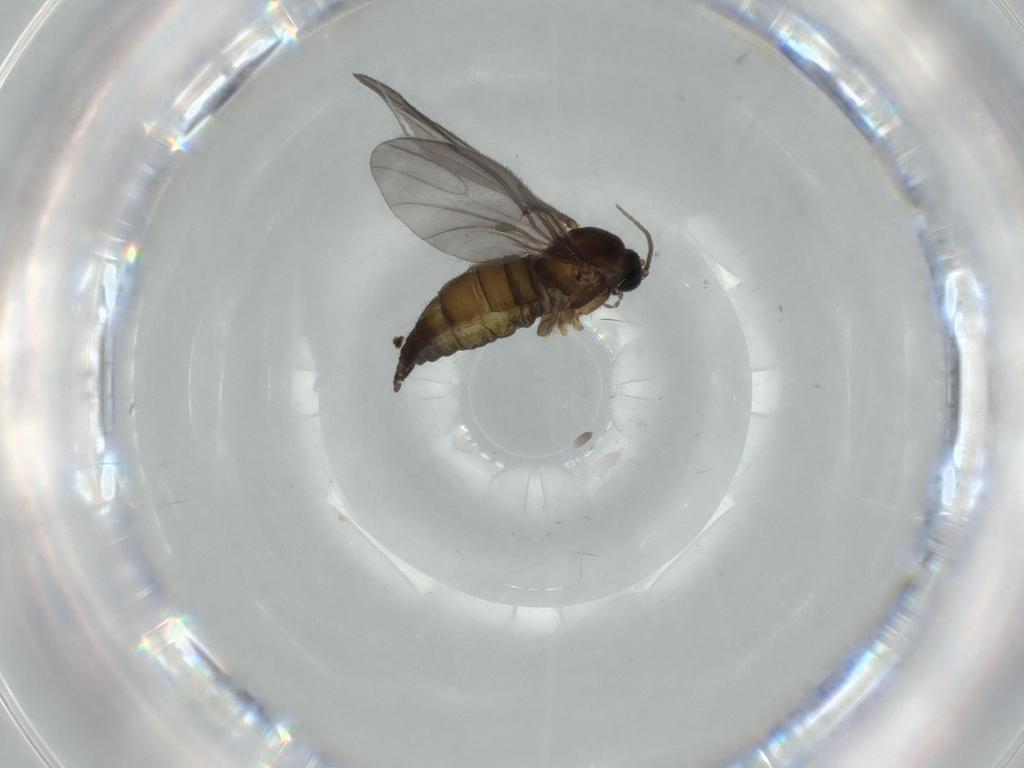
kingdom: Animalia
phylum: Arthropoda
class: Insecta
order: Diptera
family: Sciaridae
